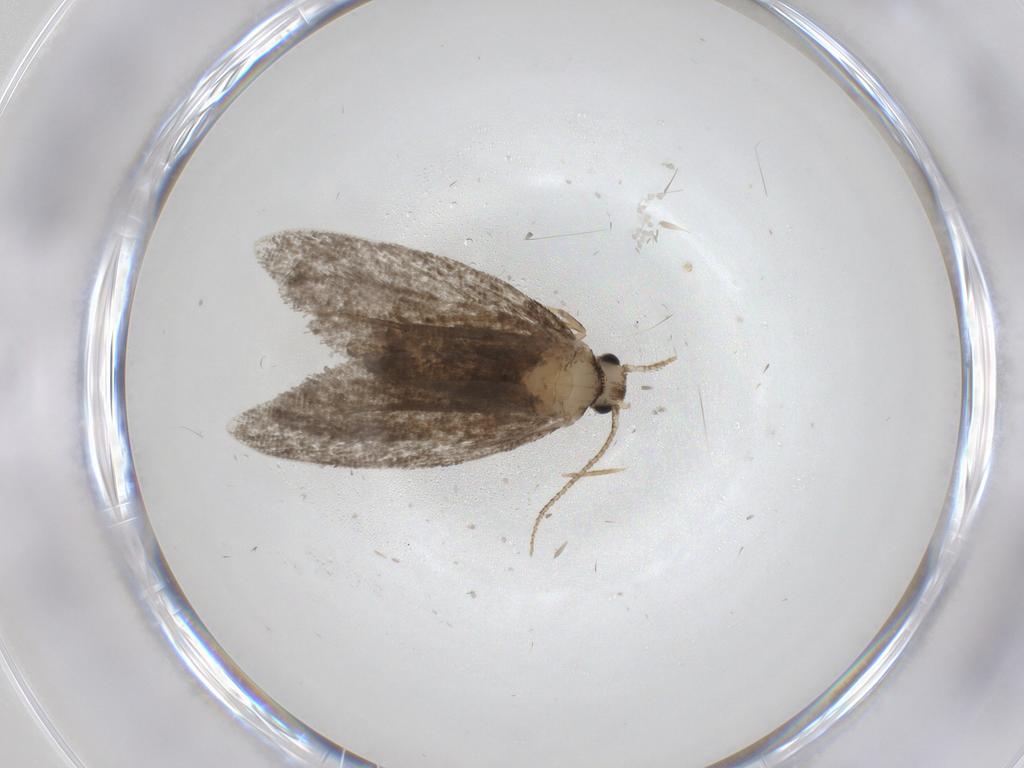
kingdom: Animalia
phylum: Arthropoda
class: Insecta
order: Lepidoptera
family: Psychidae
